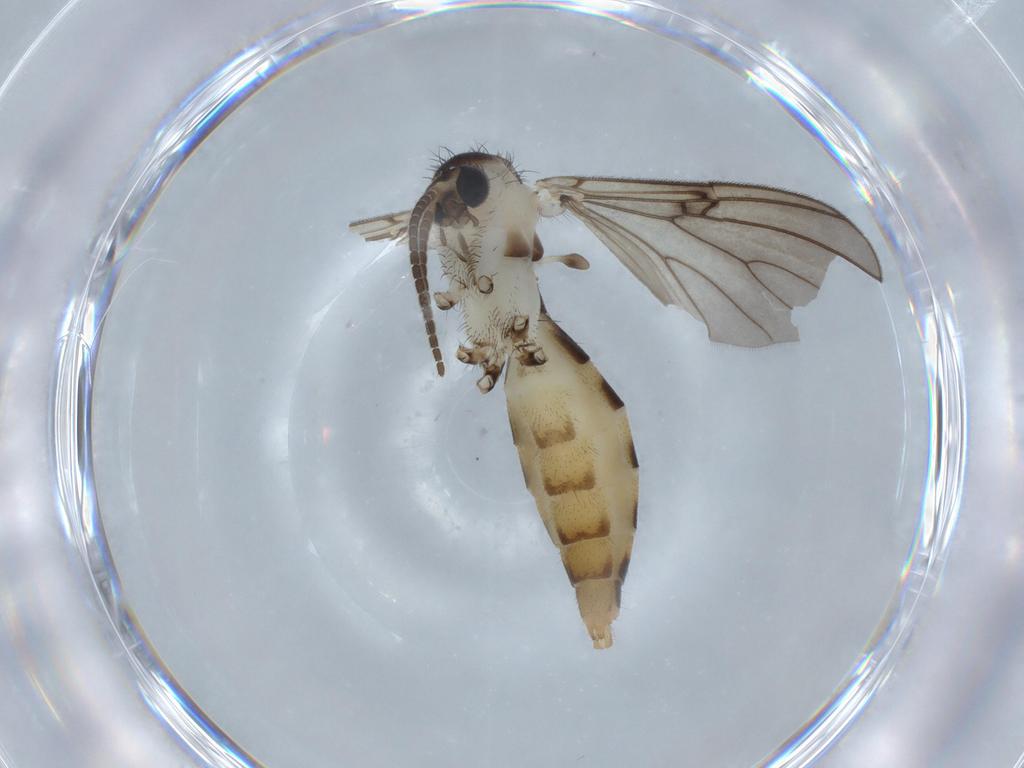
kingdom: Animalia
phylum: Arthropoda
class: Insecta
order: Diptera
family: Mycetophilidae
